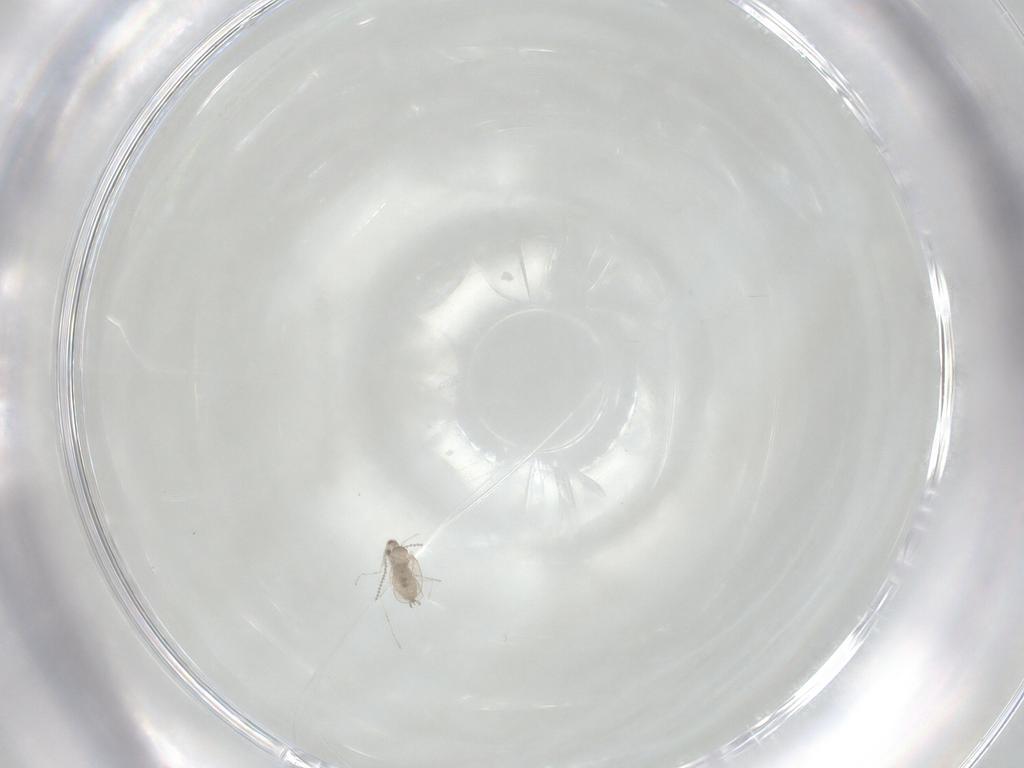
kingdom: Animalia
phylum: Arthropoda
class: Insecta
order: Diptera
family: Cecidomyiidae
